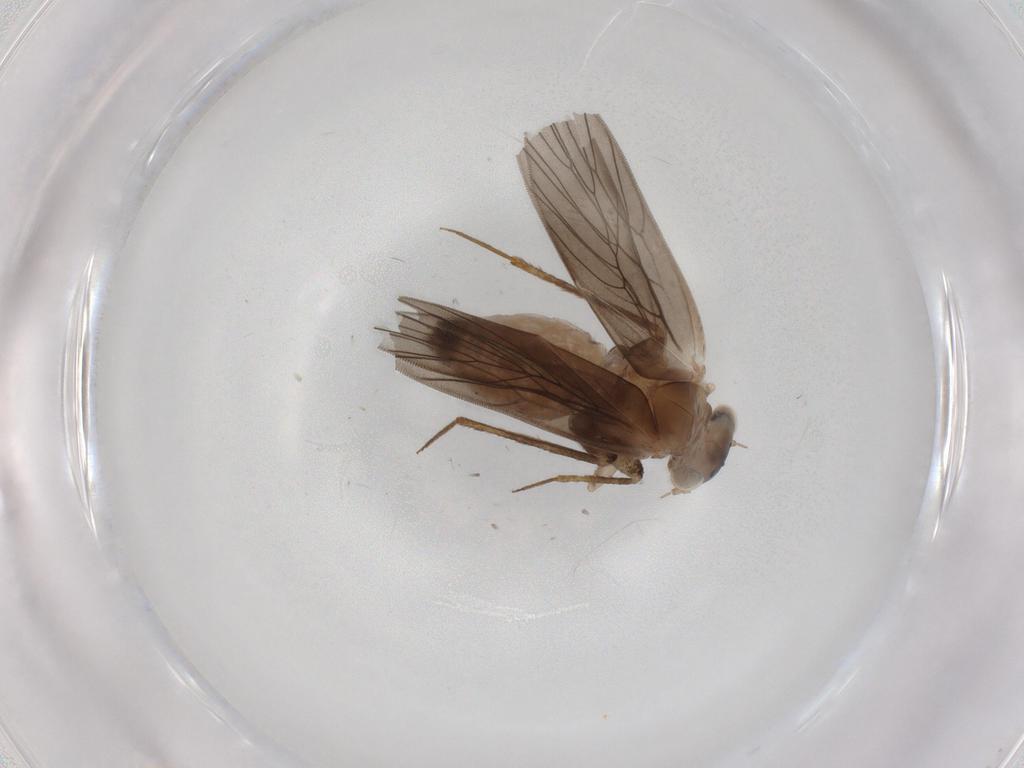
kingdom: Animalia
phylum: Arthropoda
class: Insecta
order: Psocodea
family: Lepidopsocidae
